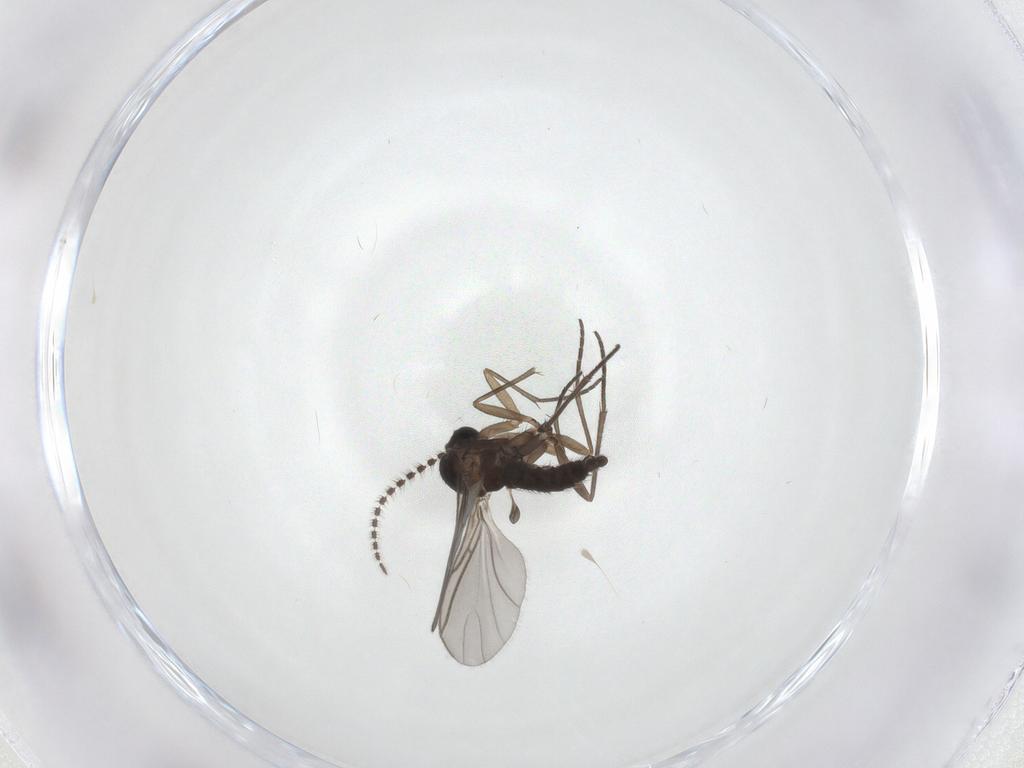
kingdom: Animalia
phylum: Arthropoda
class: Insecta
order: Diptera
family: Sciaridae
